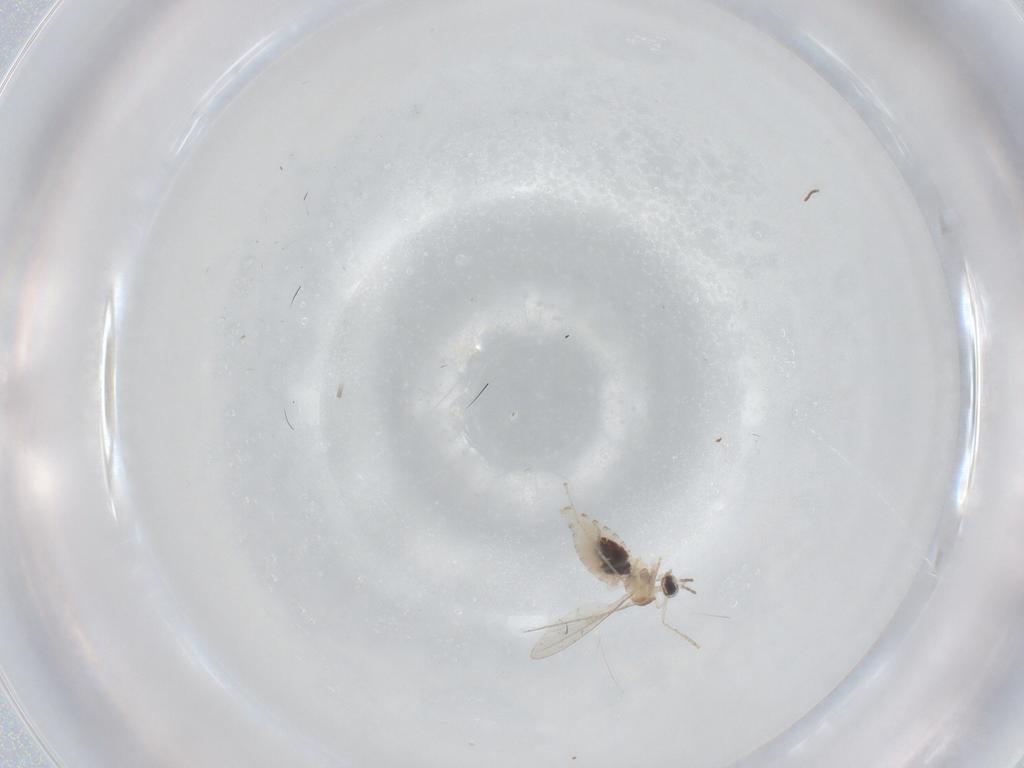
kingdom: Animalia
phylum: Arthropoda
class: Insecta
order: Diptera
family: Cecidomyiidae
